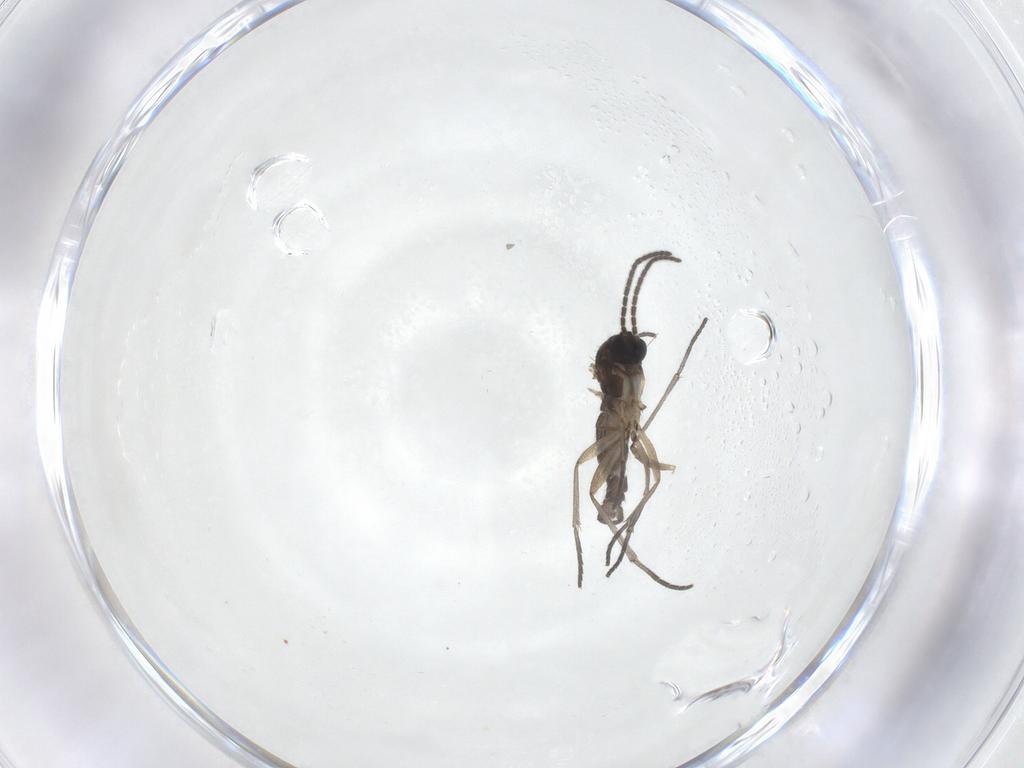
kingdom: Animalia
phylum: Arthropoda
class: Insecta
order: Diptera
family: Sciaridae
